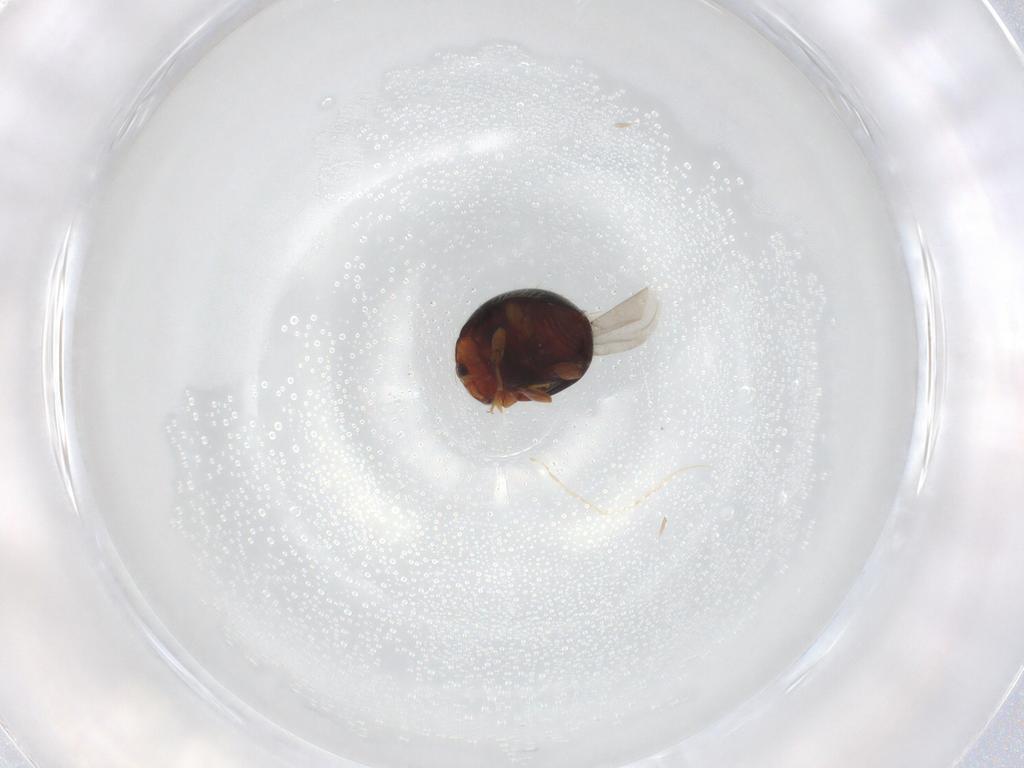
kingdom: Animalia
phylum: Arthropoda
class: Insecta
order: Coleoptera
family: Coccinellidae
